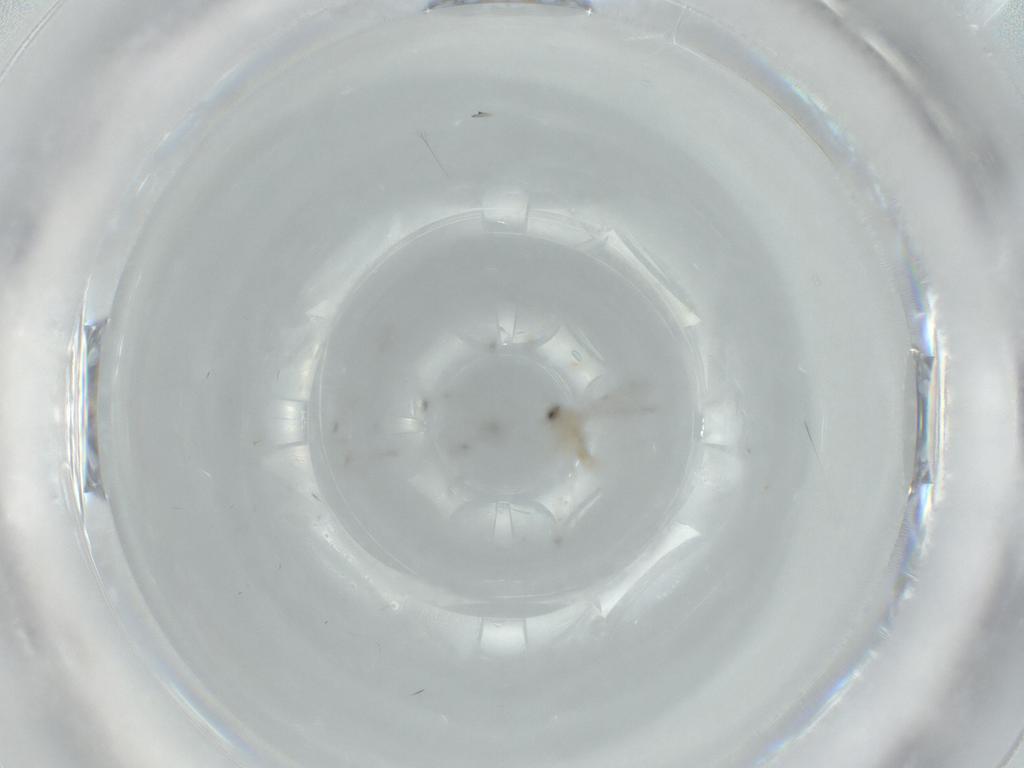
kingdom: Animalia
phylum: Arthropoda
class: Insecta
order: Diptera
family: Cecidomyiidae
